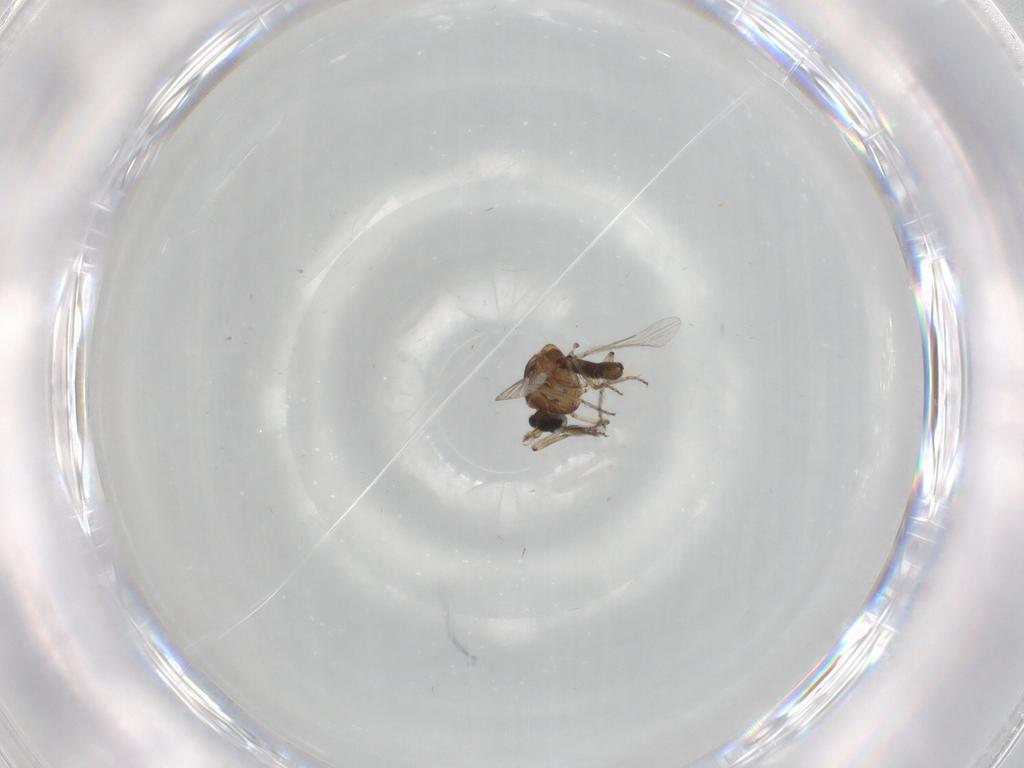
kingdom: Animalia
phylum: Arthropoda
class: Insecta
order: Diptera
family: Ceratopogonidae
